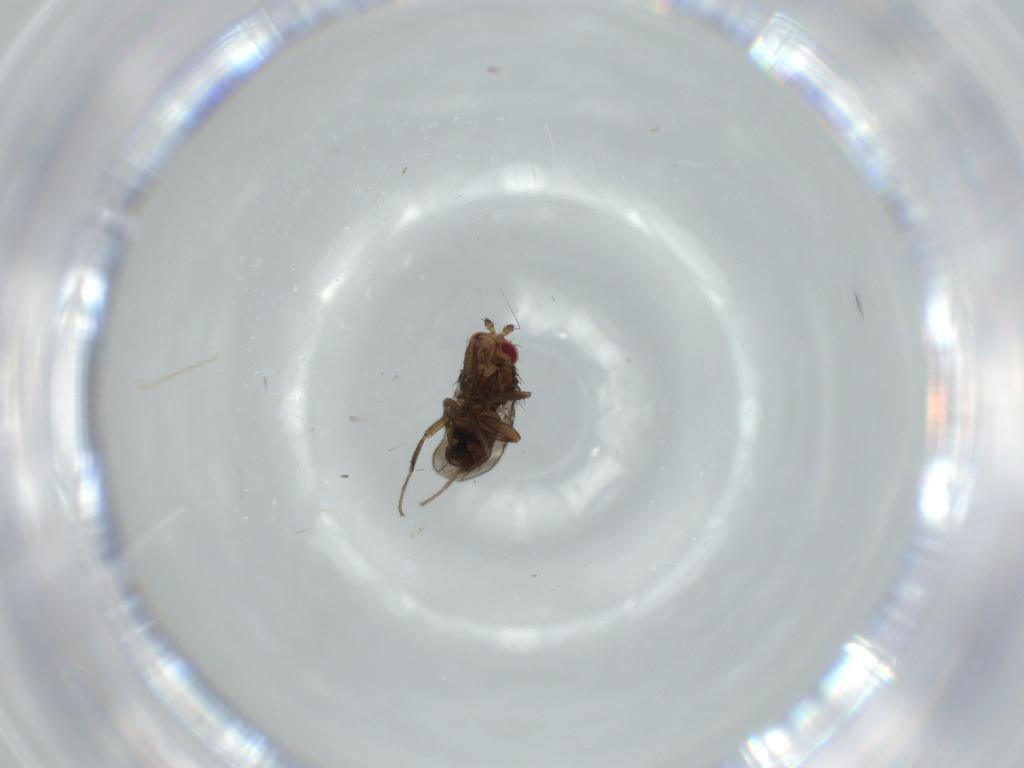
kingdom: Animalia
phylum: Arthropoda
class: Insecta
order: Diptera
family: Cecidomyiidae
